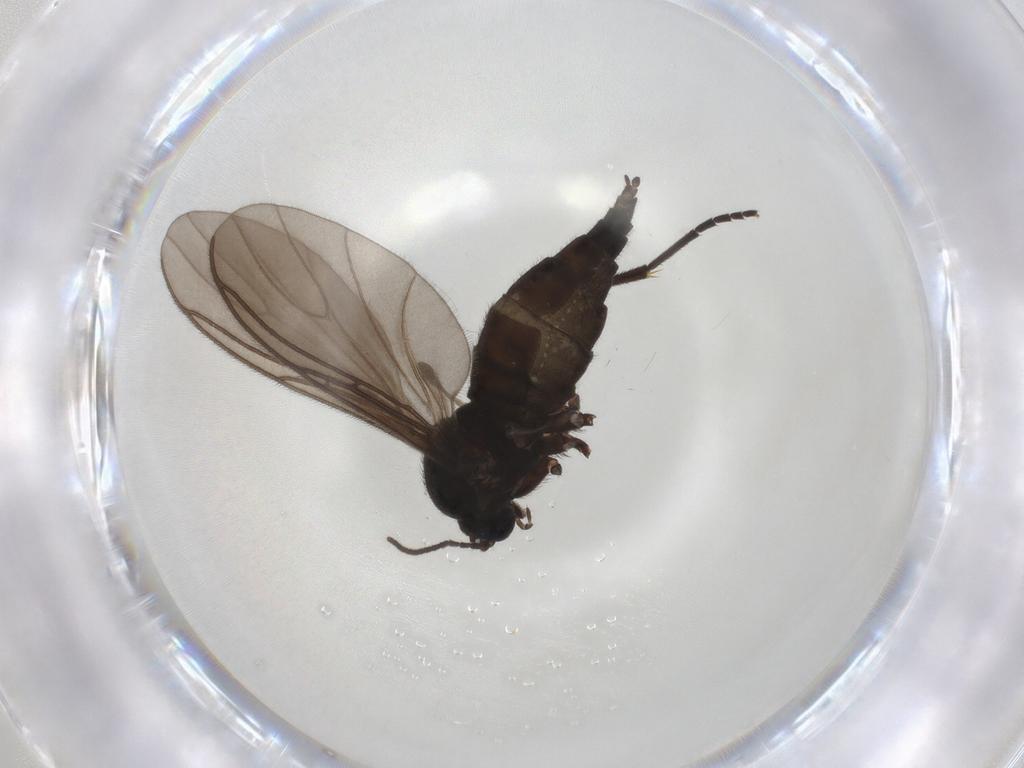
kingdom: Animalia
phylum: Arthropoda
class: Insecta
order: Diptera
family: Sciaridae
